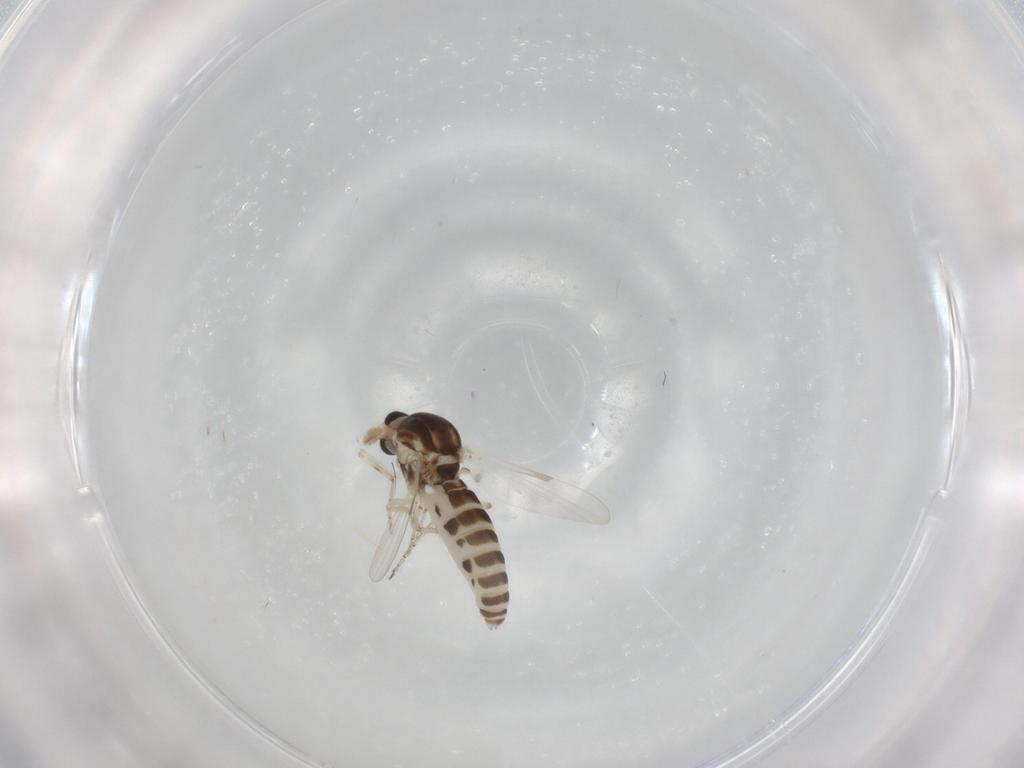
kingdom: Animalia
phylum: Arthropoda
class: Insecta
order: Diptera
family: Ceratopogonidae
